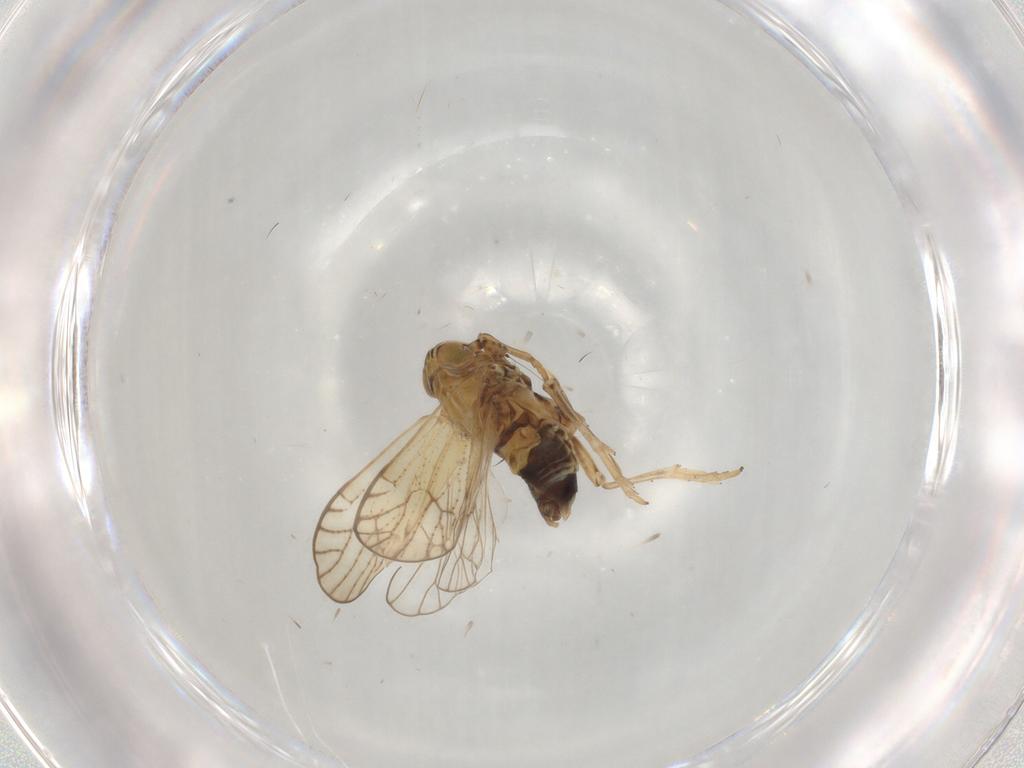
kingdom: Animalia
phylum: Arthropoda
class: Insecta
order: Hemiptera
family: Delphacidae
